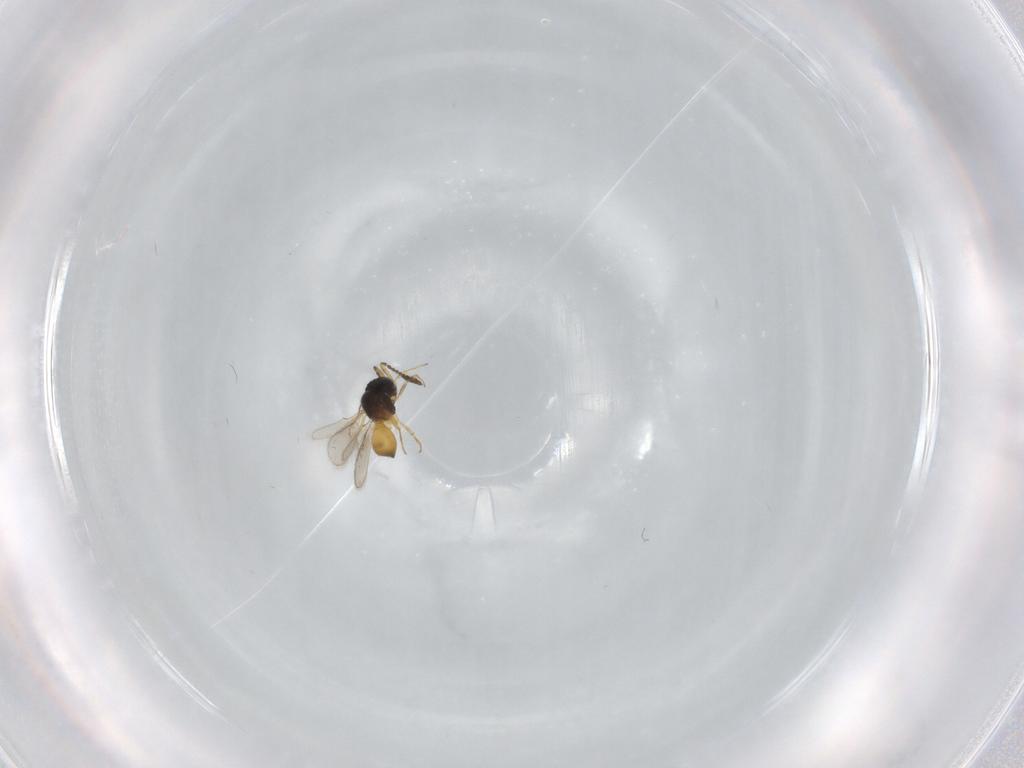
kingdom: Animalia
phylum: Arthropoda
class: Insecta
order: Hymenoptera
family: Scelionidae
